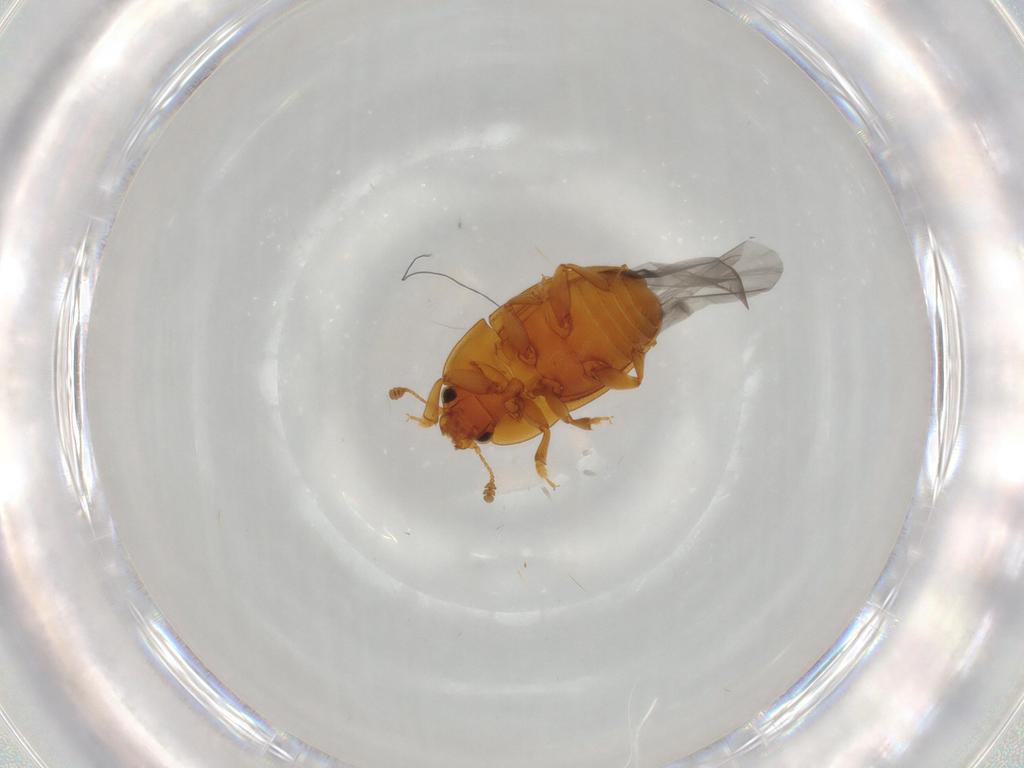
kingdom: Animalia
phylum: Arthropoda
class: Insecta
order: Coleoptera
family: Nitidulidae
